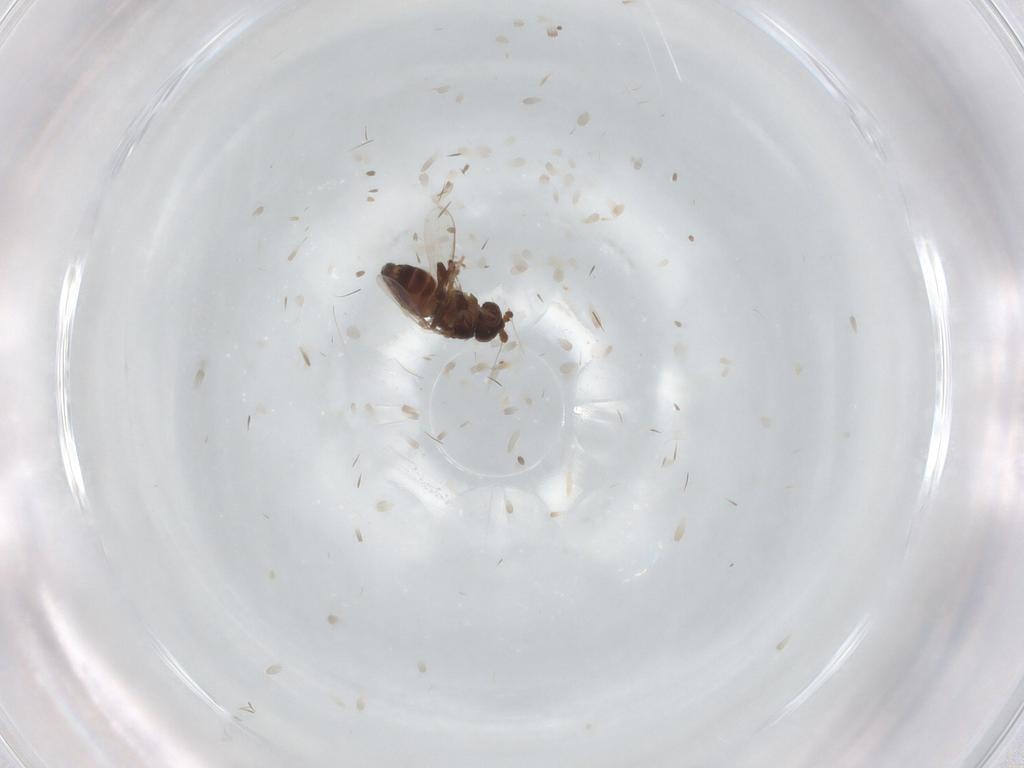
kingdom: Animalia
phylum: Arthropoda
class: Insecta
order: Diptera
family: Sphaeroceridae
